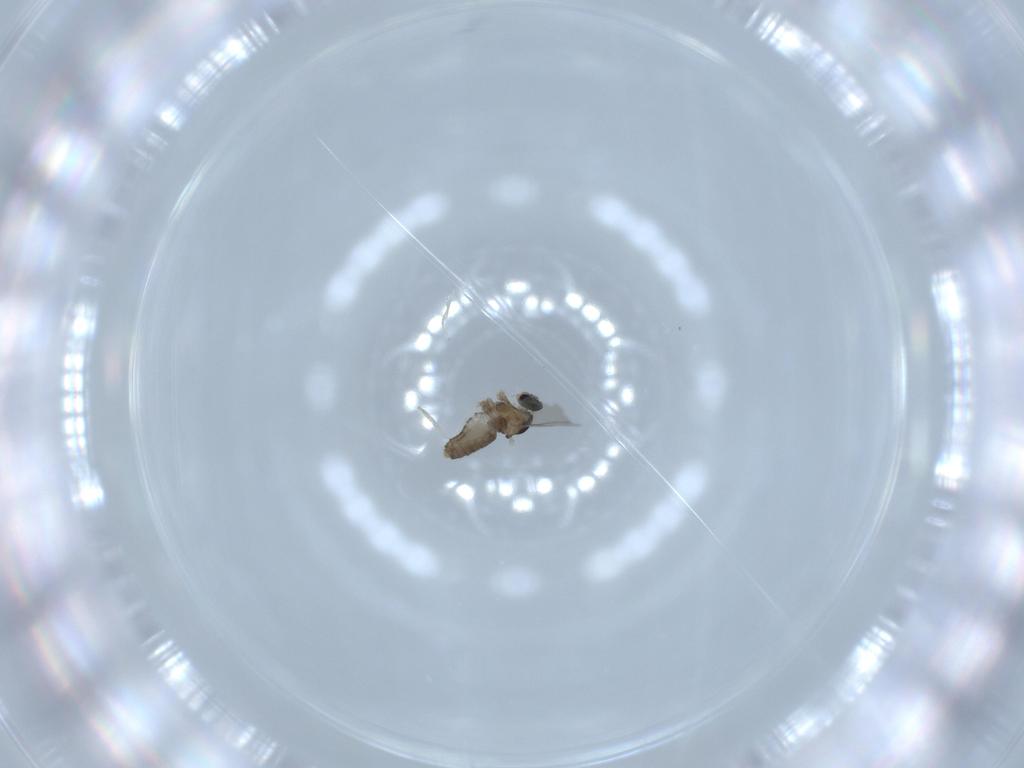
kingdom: Animalia
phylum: Arthropoda
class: Insecta
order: Diptera
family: Cecidomyiidae
